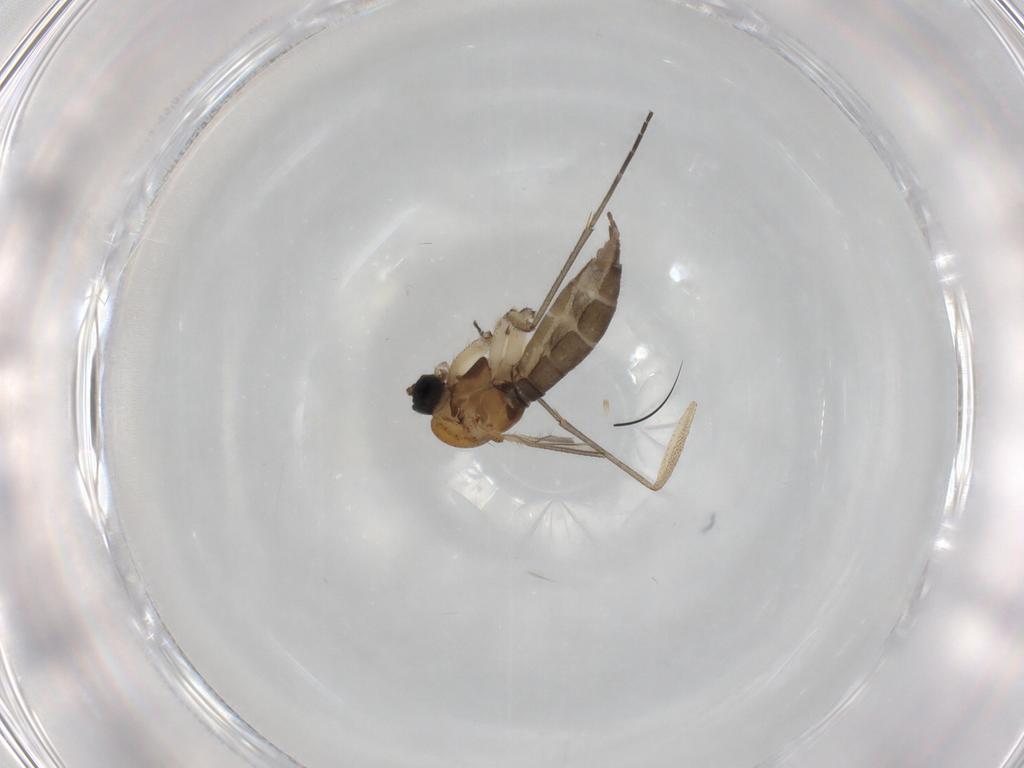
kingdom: Animalia
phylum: Arthropoda
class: Insecta
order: Diptera
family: Sciaridae
